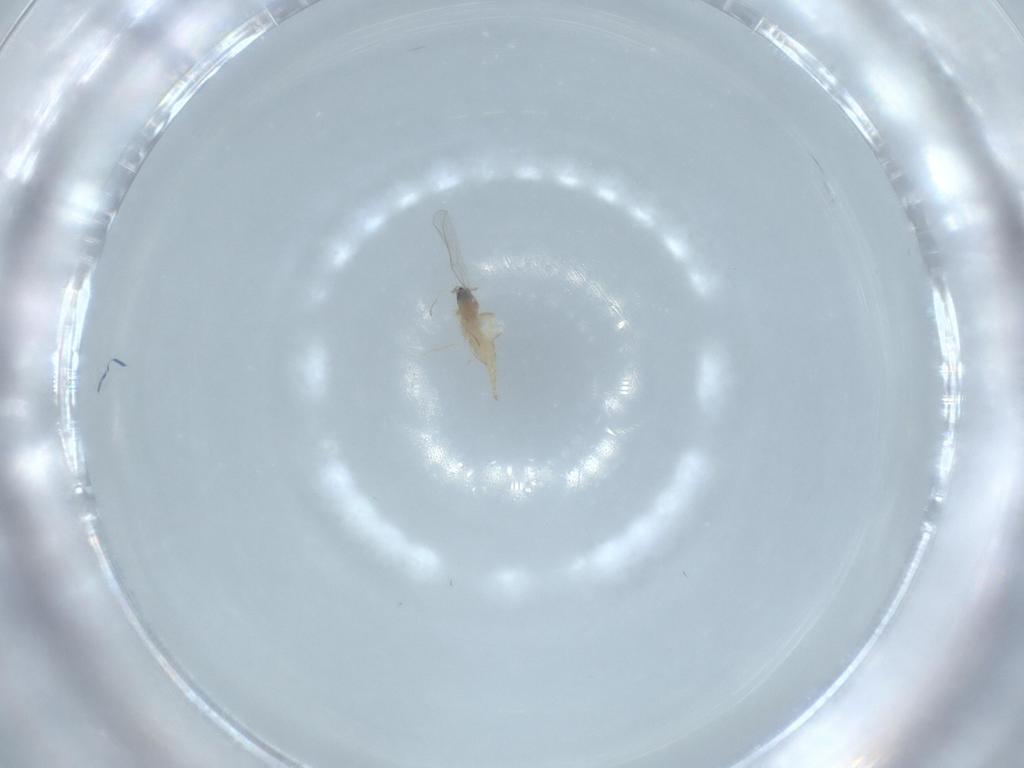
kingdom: Animalia
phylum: Arthropoda
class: Insecta
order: Diptera
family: Cecidomyiidae
